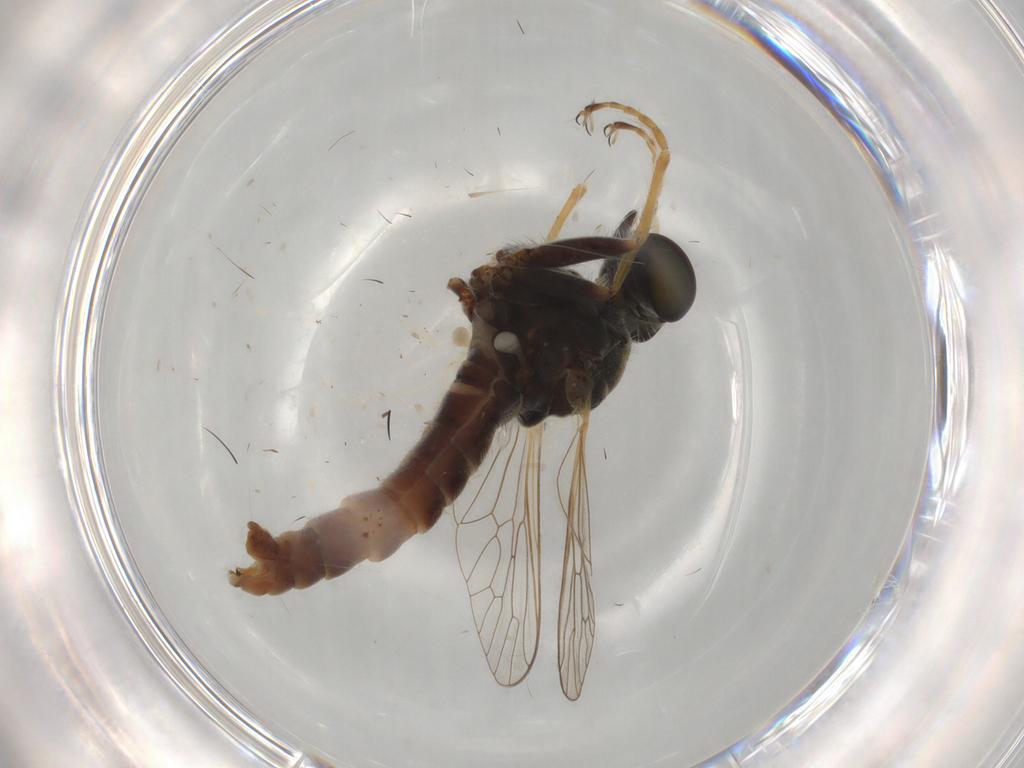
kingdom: Animalia
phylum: Arthropoda
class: Insecta
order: Diptera
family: Asilidae
